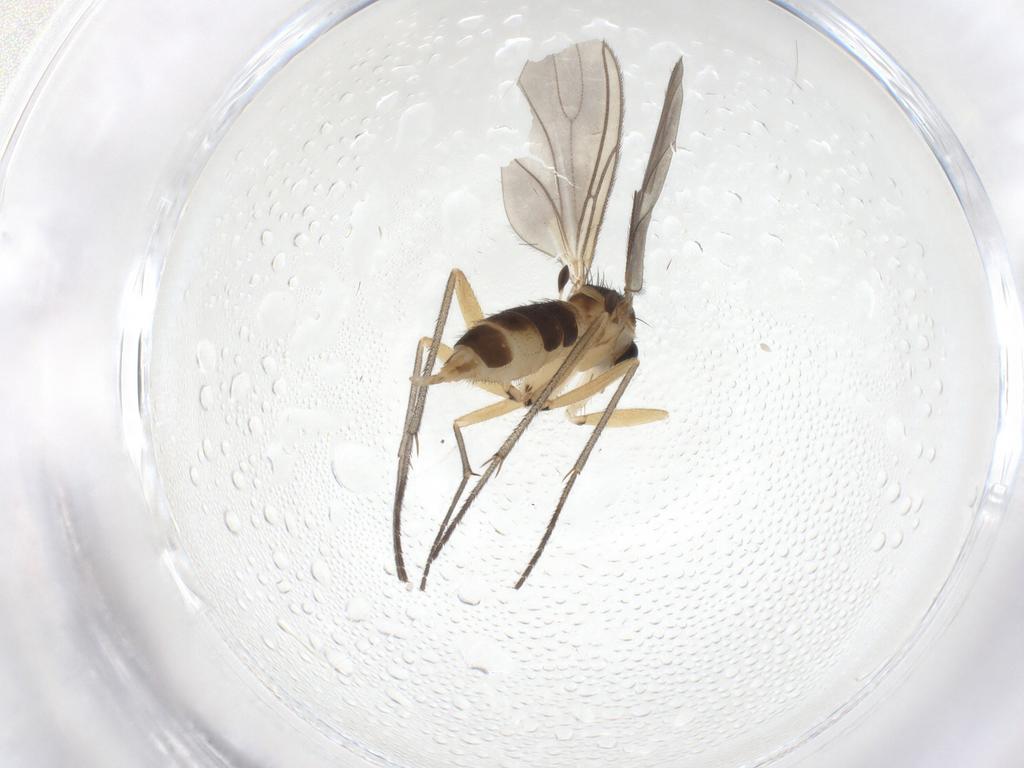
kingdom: Animalia
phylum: Arthropoda
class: Insecta
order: Diptera
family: Sciaridae
